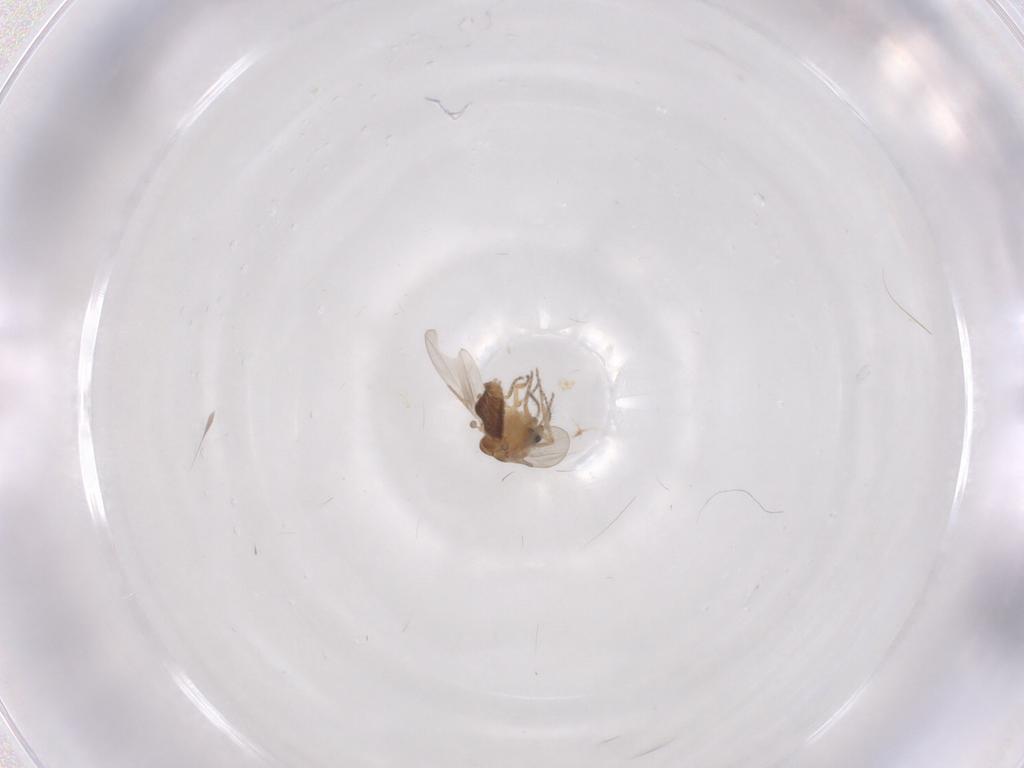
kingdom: Animalia
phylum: Arthropoda
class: Insecta
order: Diptera
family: Ceratopogonidae
